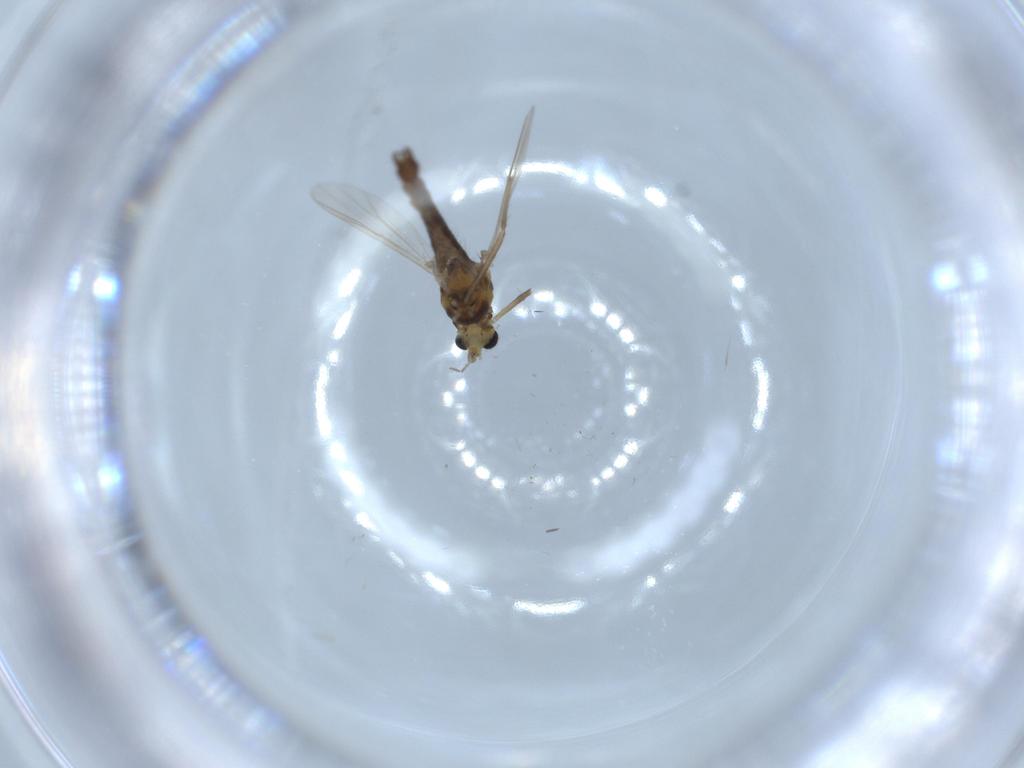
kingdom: Animalia
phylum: Arthropoda
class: Insecta
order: Diptera
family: Chironomidae
